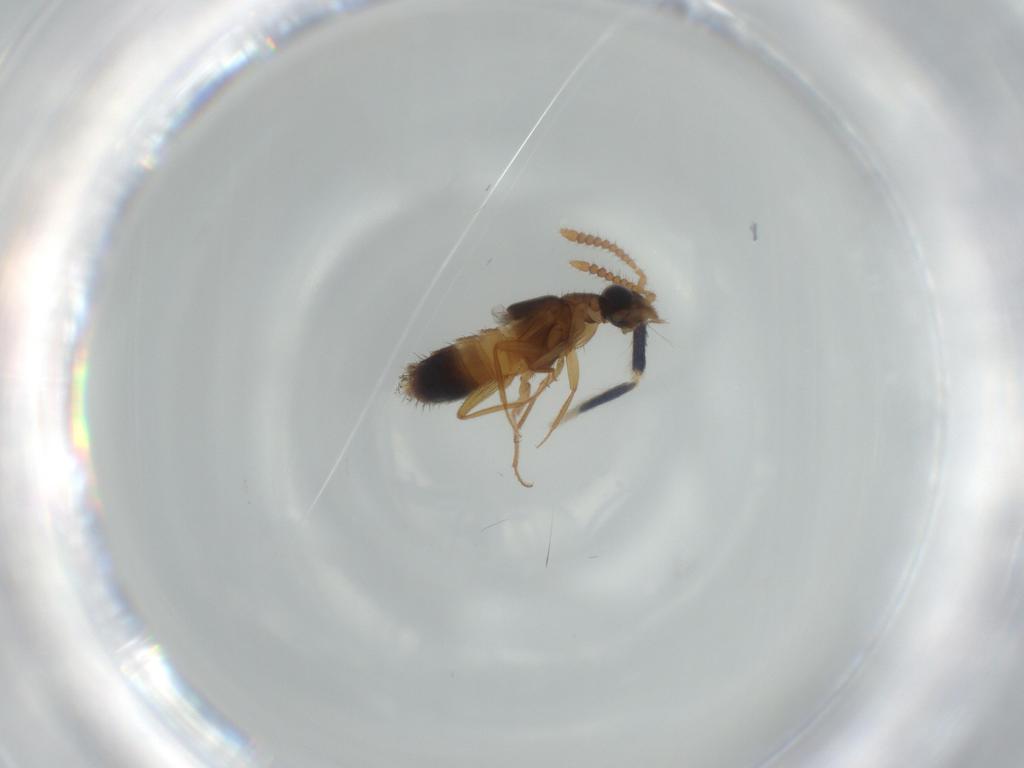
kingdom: Animalia
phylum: Arthropoda
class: Insecta
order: Coleoptera
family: Staphylinidae
